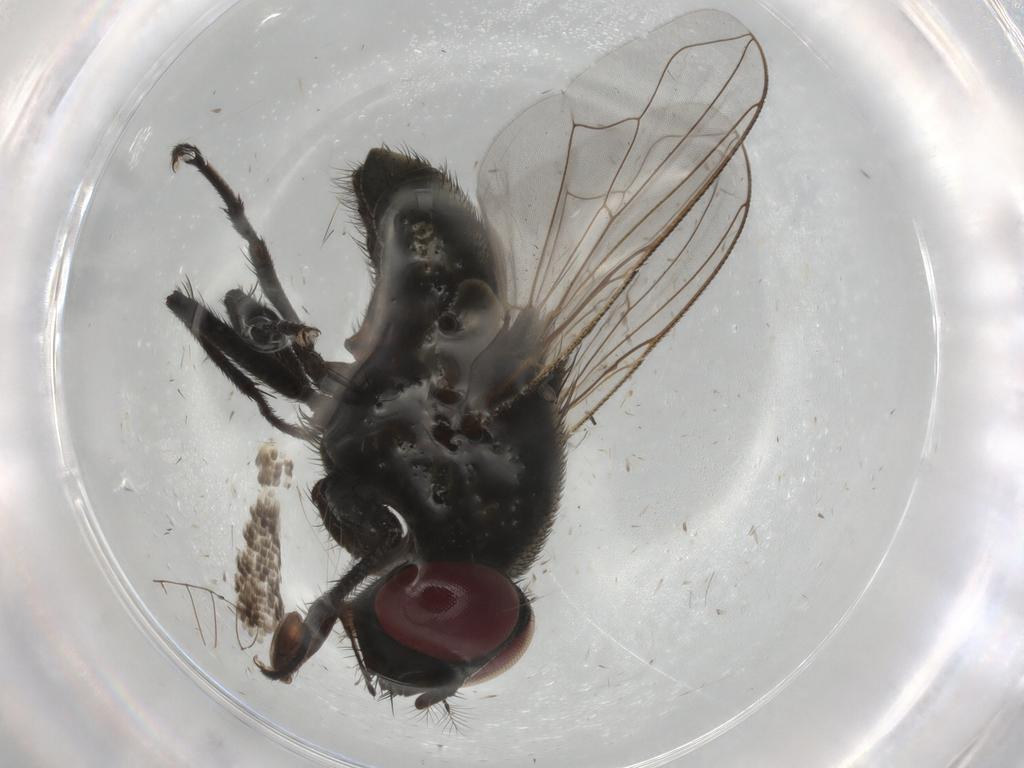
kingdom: Animalia
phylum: Arthropoda
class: Insecta
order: Diptera
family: Muscidae
